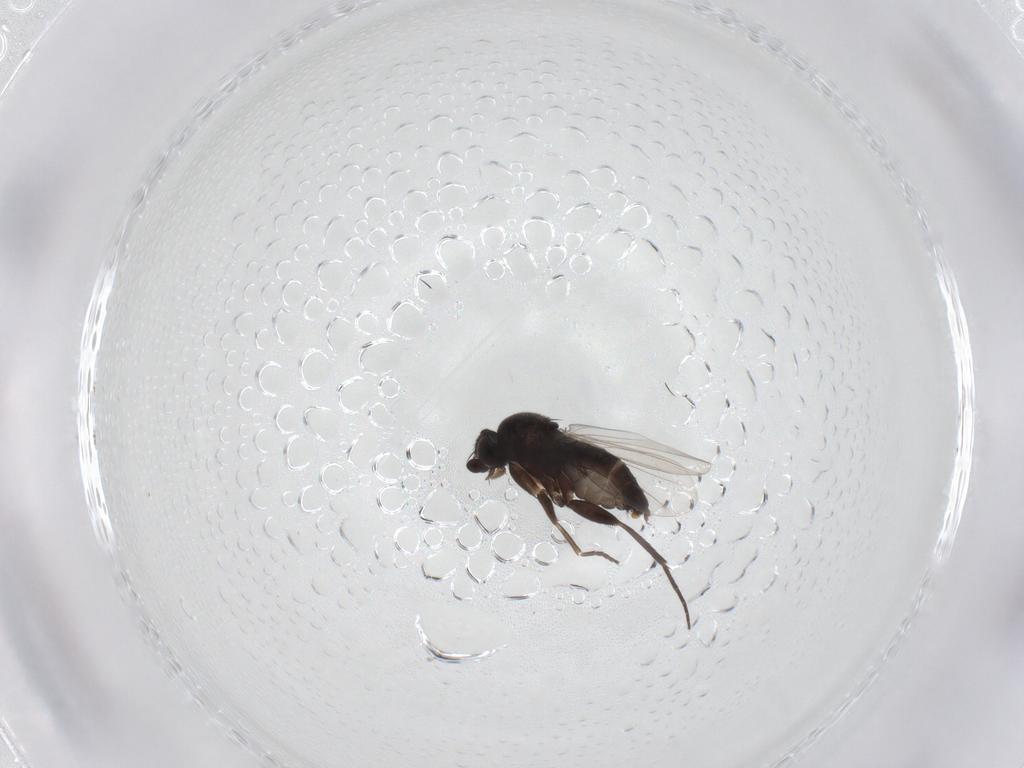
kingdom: Animalia
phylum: Arthropoda
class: Insecta
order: Diptera
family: Phoridae
